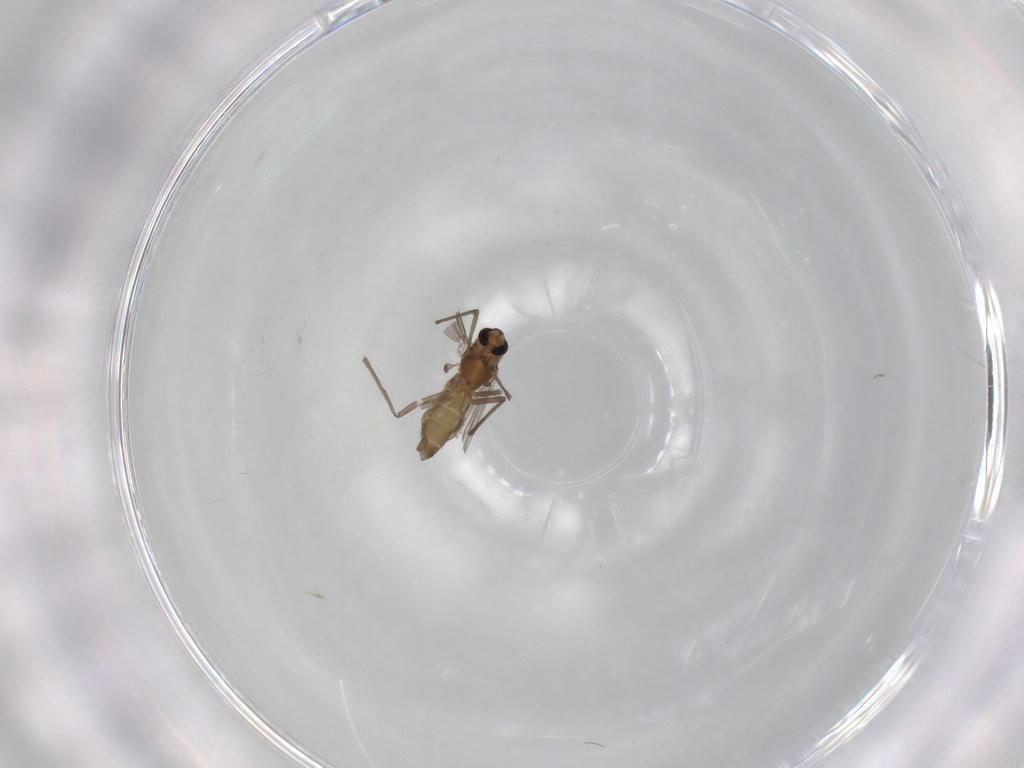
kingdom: Animalia
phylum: Arthropoda
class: Insecta
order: Diptera
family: Chironomidae
